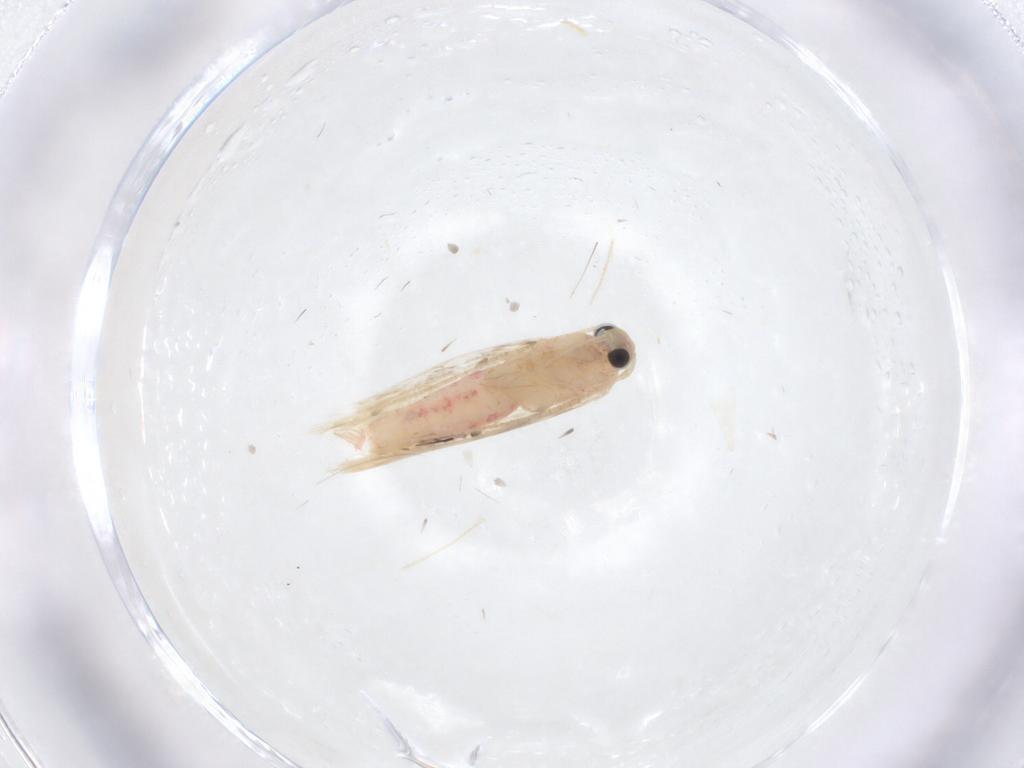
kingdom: Animalia
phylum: Arthropoda
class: Insecta
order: Lepidoptera
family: Bedelliidae
